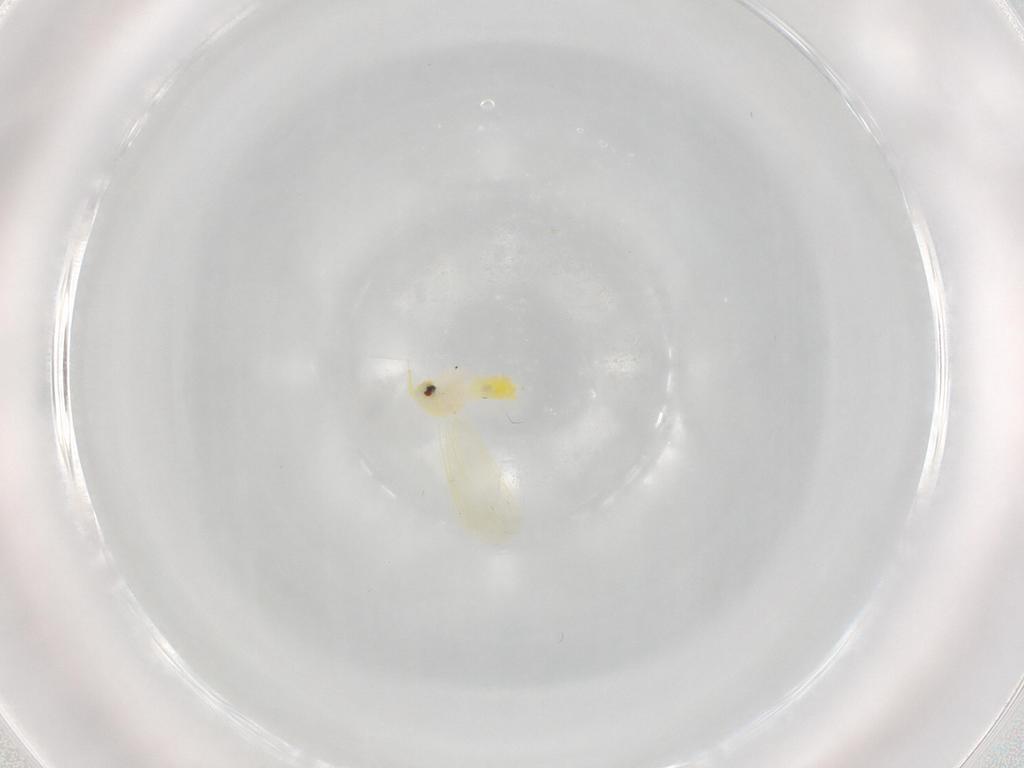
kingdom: Animalia
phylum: Arthropoda
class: Insecta
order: Hemiptera
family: Aleyrodidae
